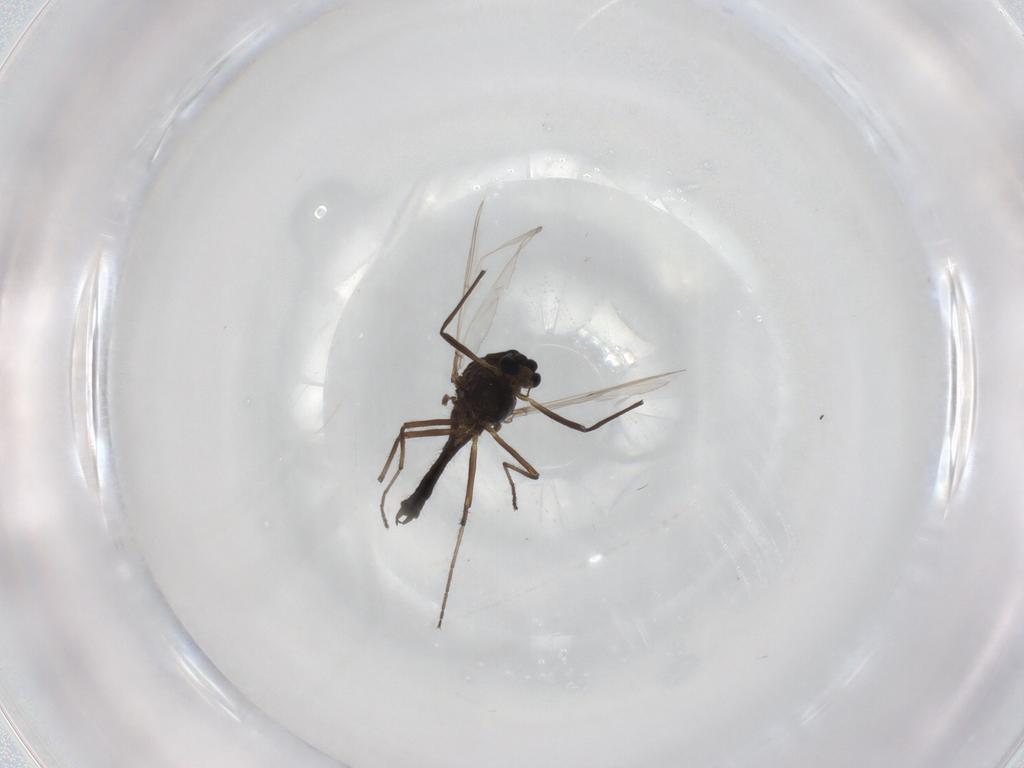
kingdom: Animalia
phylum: Arthropoda
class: Insecta
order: Diptera
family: Chironomidae
